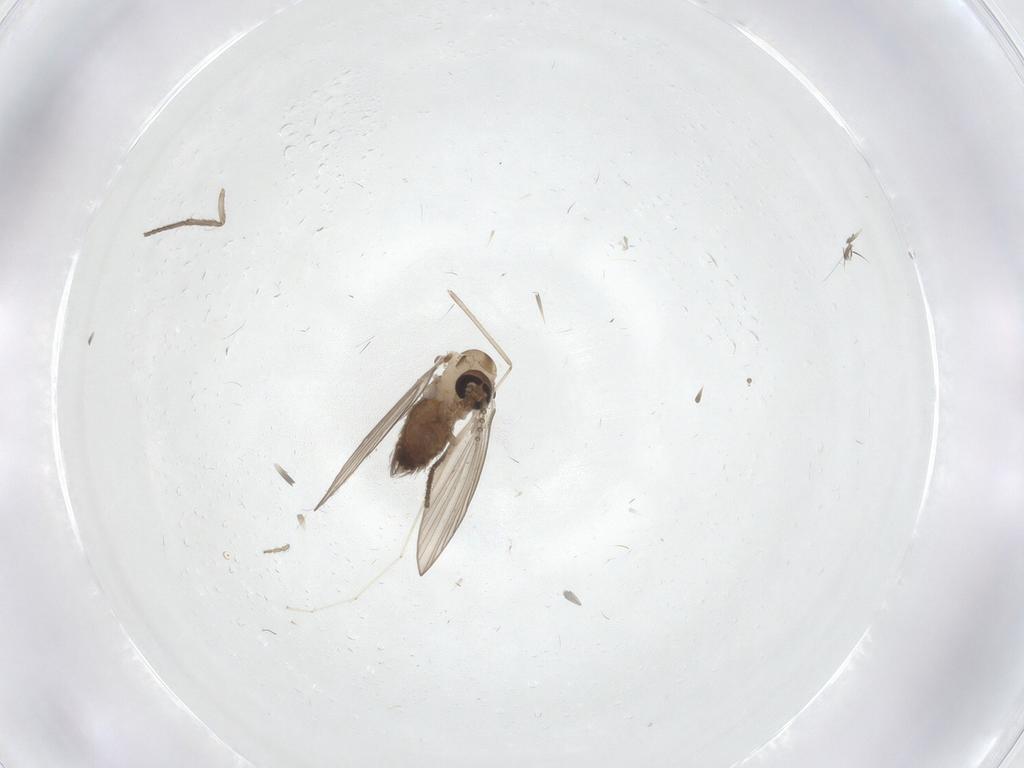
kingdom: Animalia
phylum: Arthropoda
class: Insecta
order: Diptera
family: Psychodidae
